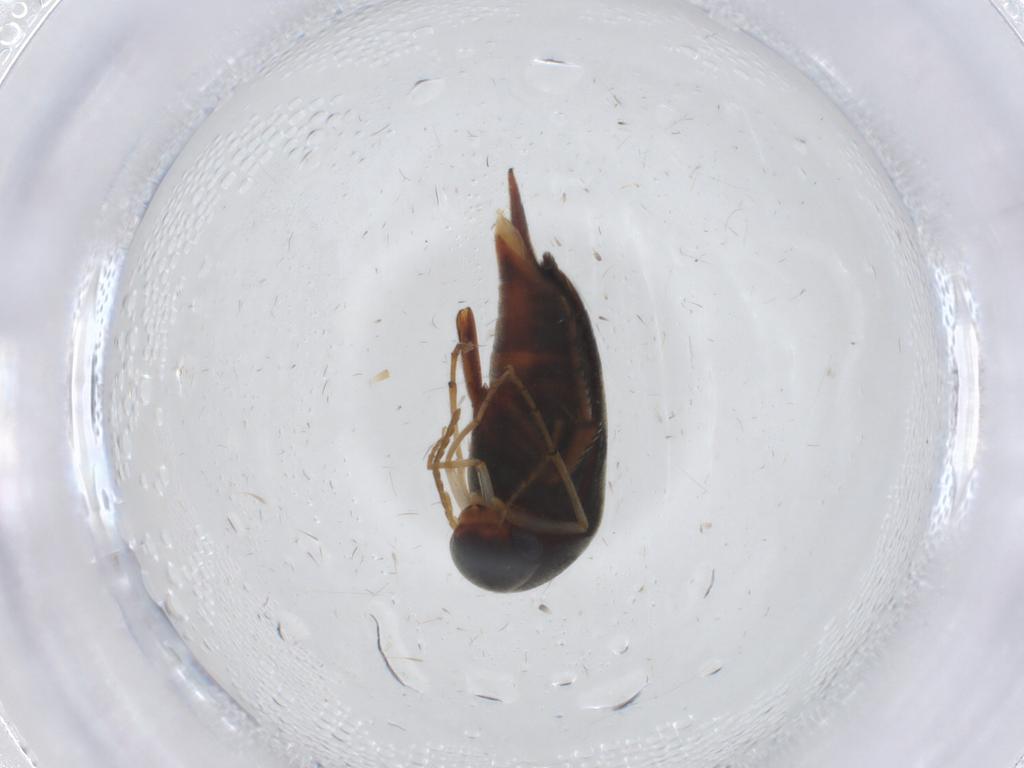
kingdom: Animalia
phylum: Arthropoda
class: Insecta
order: Coleoptera
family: Mordellidae
